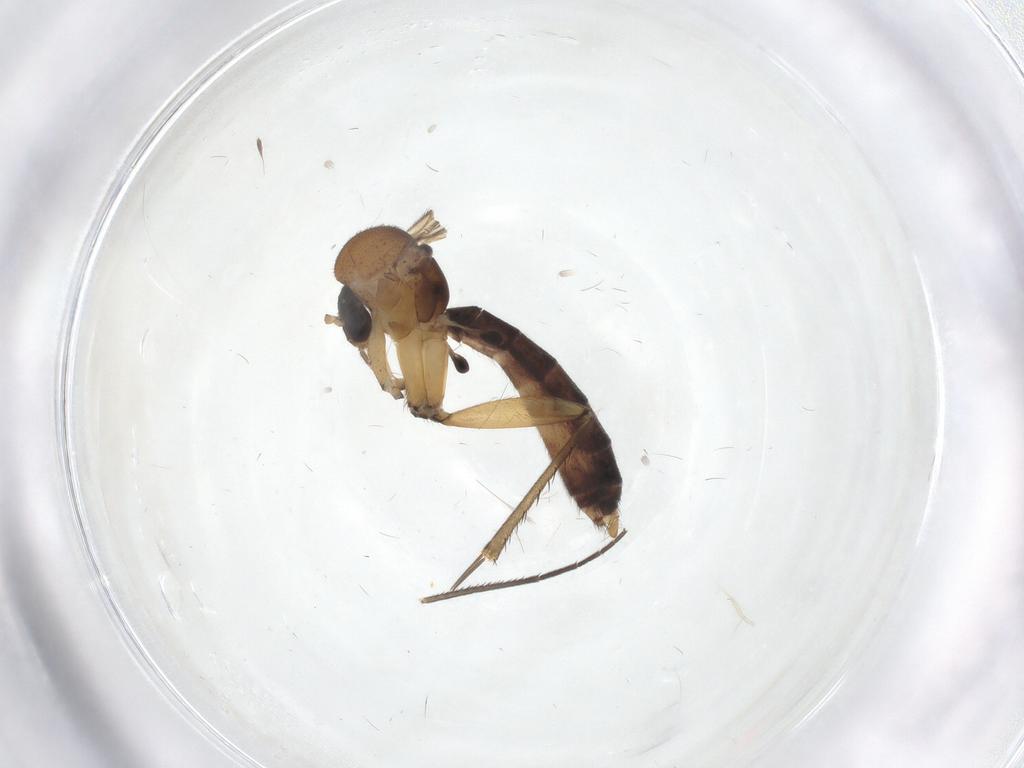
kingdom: Animalia
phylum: Arthropoda
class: Insecta
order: Diptera
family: Mycetophilidae
